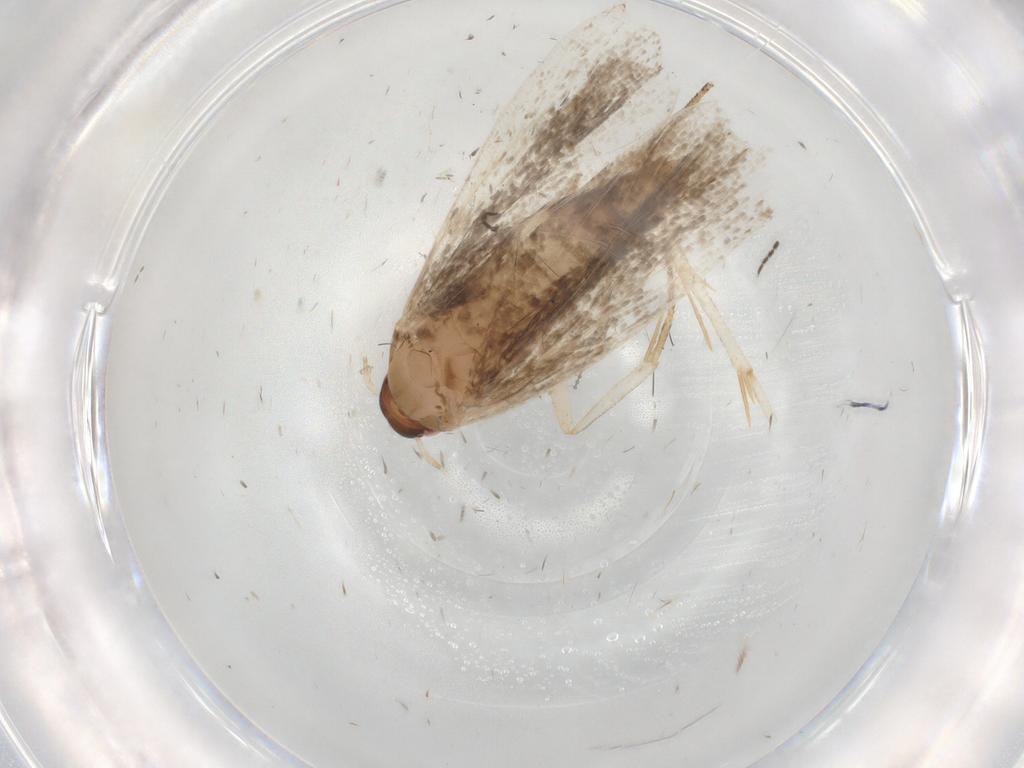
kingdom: Animalia
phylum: Arthropoda
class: Insecta
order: Lepidoptera
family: Gelechiidae
